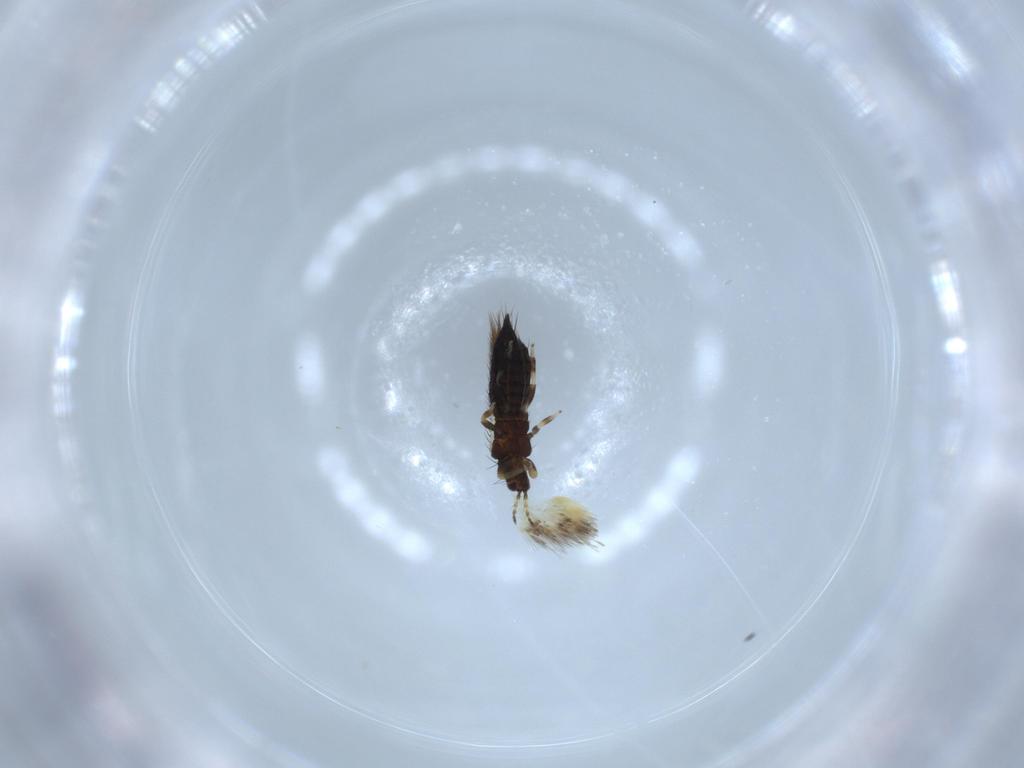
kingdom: Animalia
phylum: Arthropoda
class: Insecta
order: Thysanoptera
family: Thripidae
